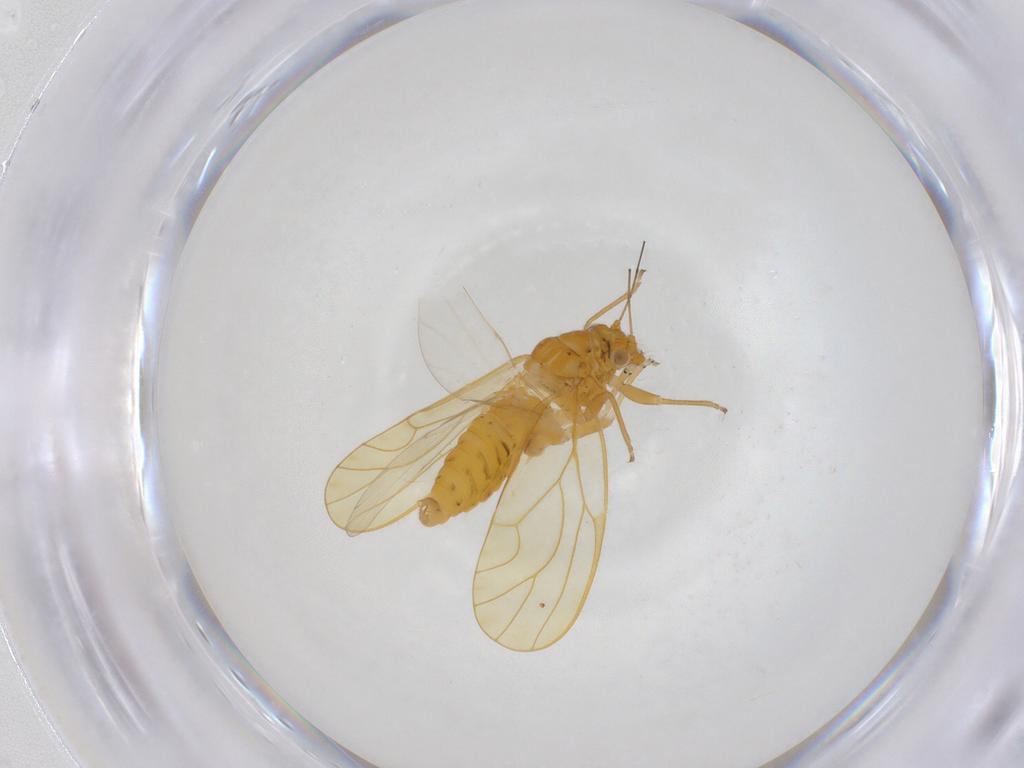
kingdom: Animalia
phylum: Arthropoda
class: Insecta
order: Hemiptera
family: Psyllidae
